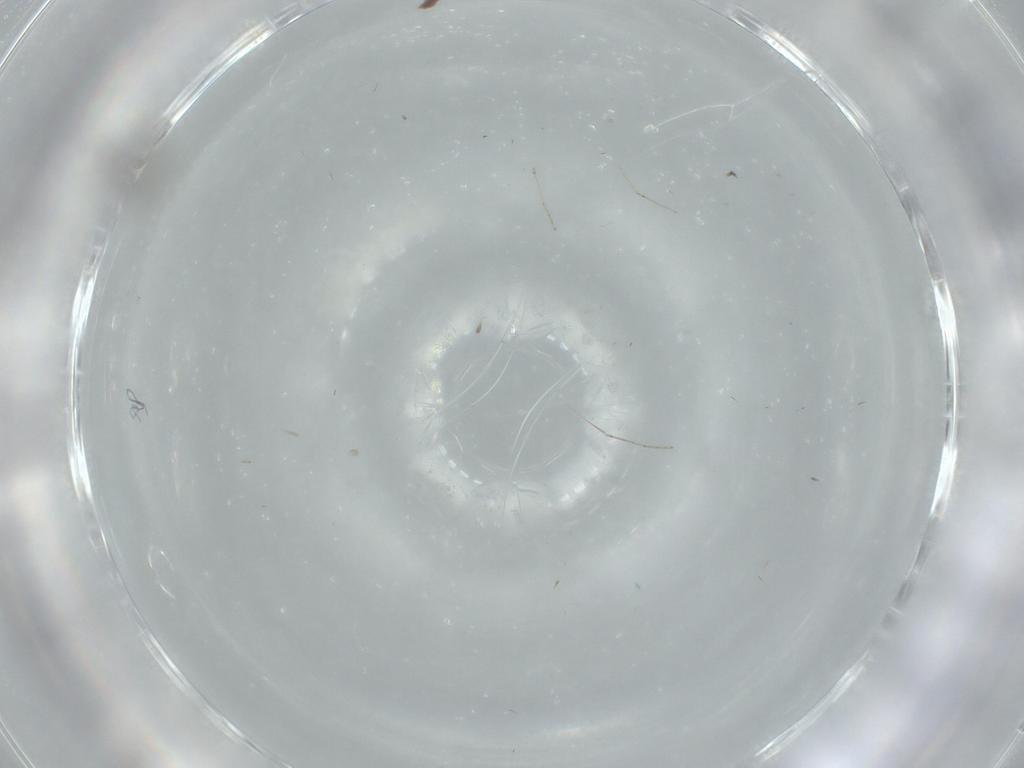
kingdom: Animalia
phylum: Arthropoda
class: Insecta
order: Diptera
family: Cecidomyiidae
